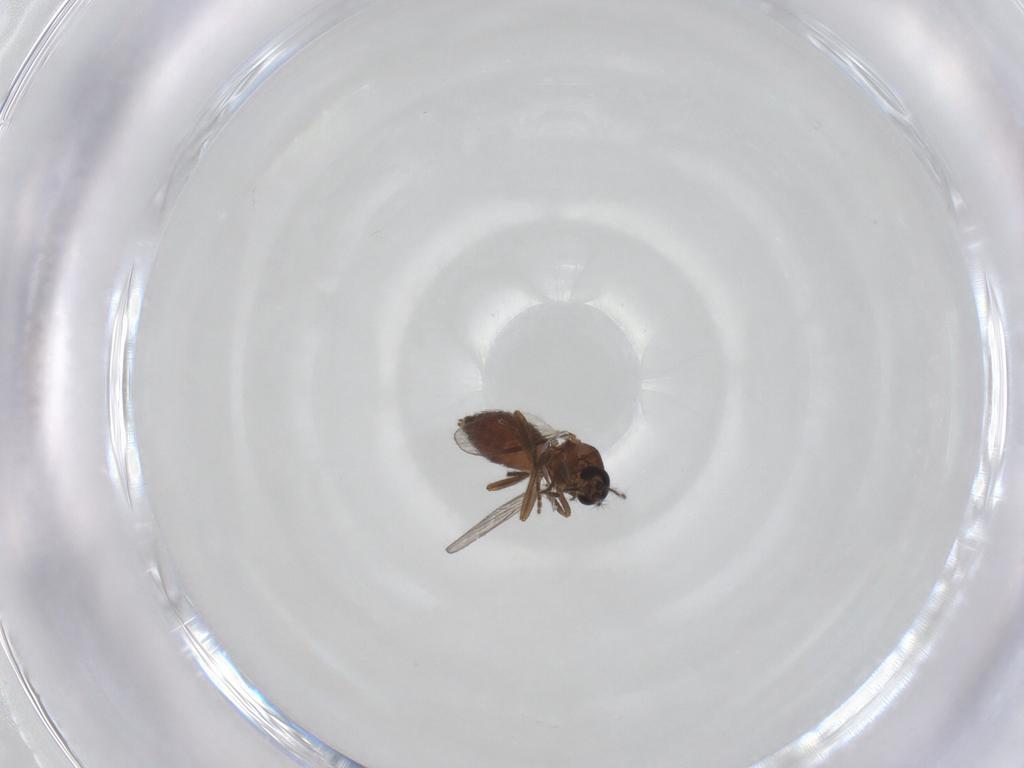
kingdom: Animalia
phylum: Arthropoda
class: Insecta
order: Diptera
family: Ceratopogonidae
